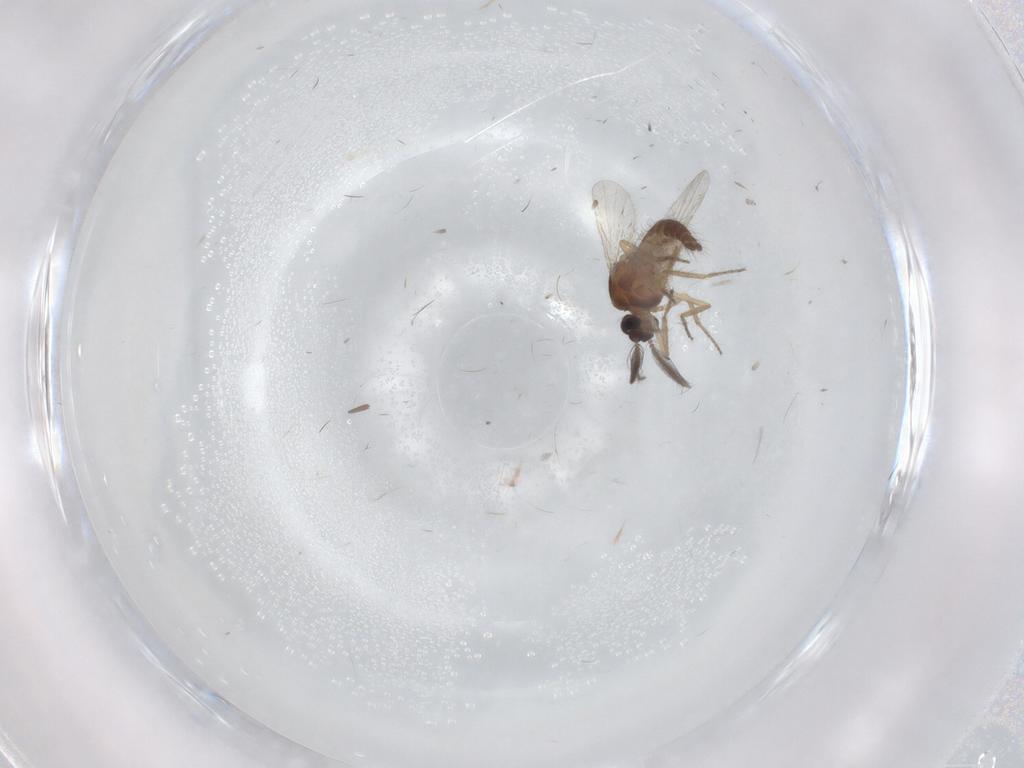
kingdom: Animalia
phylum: Arthropoda
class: Insecta
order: Diptera
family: Ceratopogonidae
